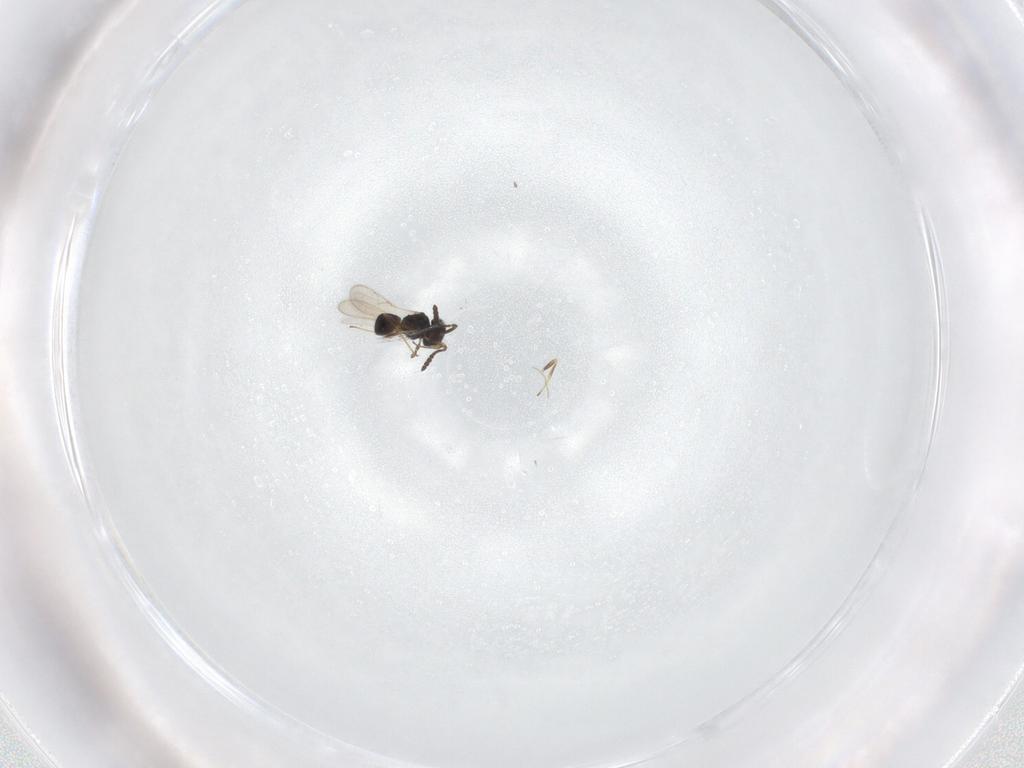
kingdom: Animalia
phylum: Arthropoda
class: Insecta
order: Hymenoptera
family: Scelionidae
